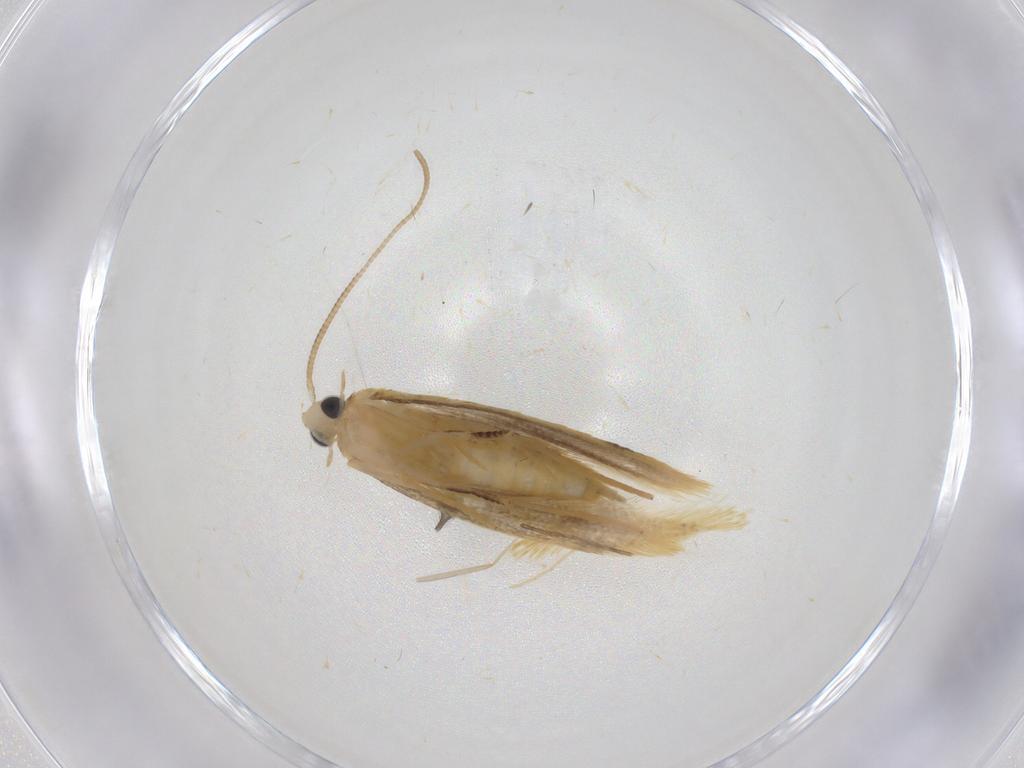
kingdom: Animalia
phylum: Arthropoda
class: Insecta
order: Lepidoptera
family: Tineidae
